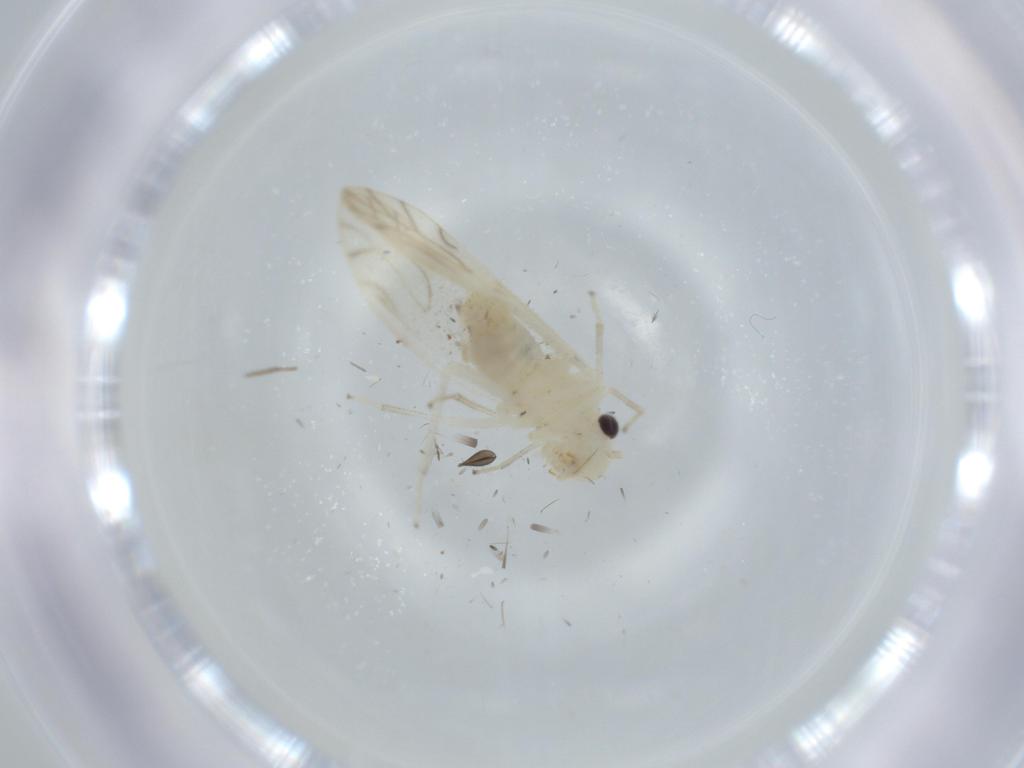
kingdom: Animalia
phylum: Arthropoda
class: Insecta
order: Psocodea
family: Caeciliusidae
